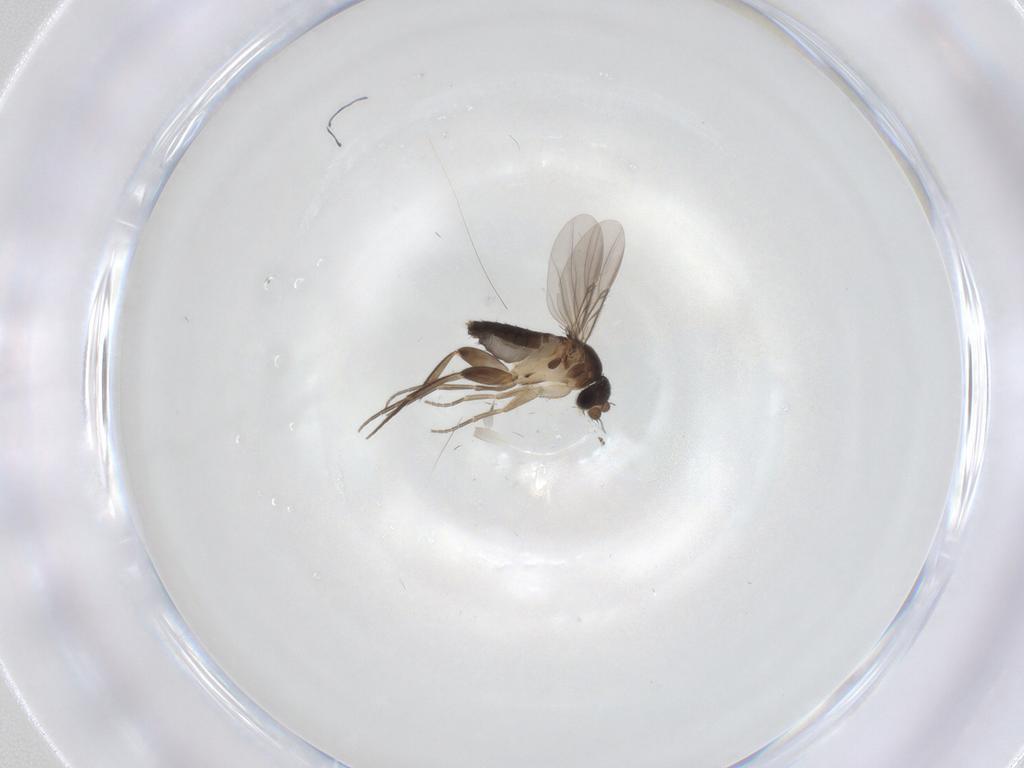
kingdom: Animalia
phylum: Arthropoda
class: Insecta
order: Diptera
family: Phoridae
